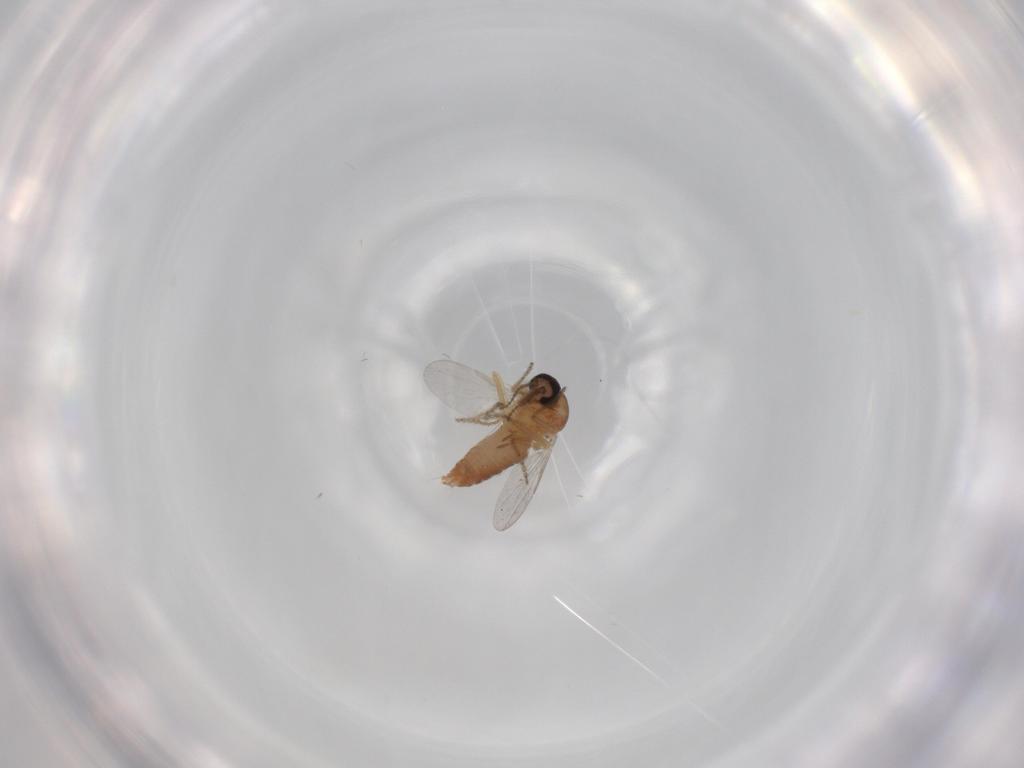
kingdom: Animalia
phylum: Arthropoda
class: Insecta
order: Diptera
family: Ceratopogonidae
